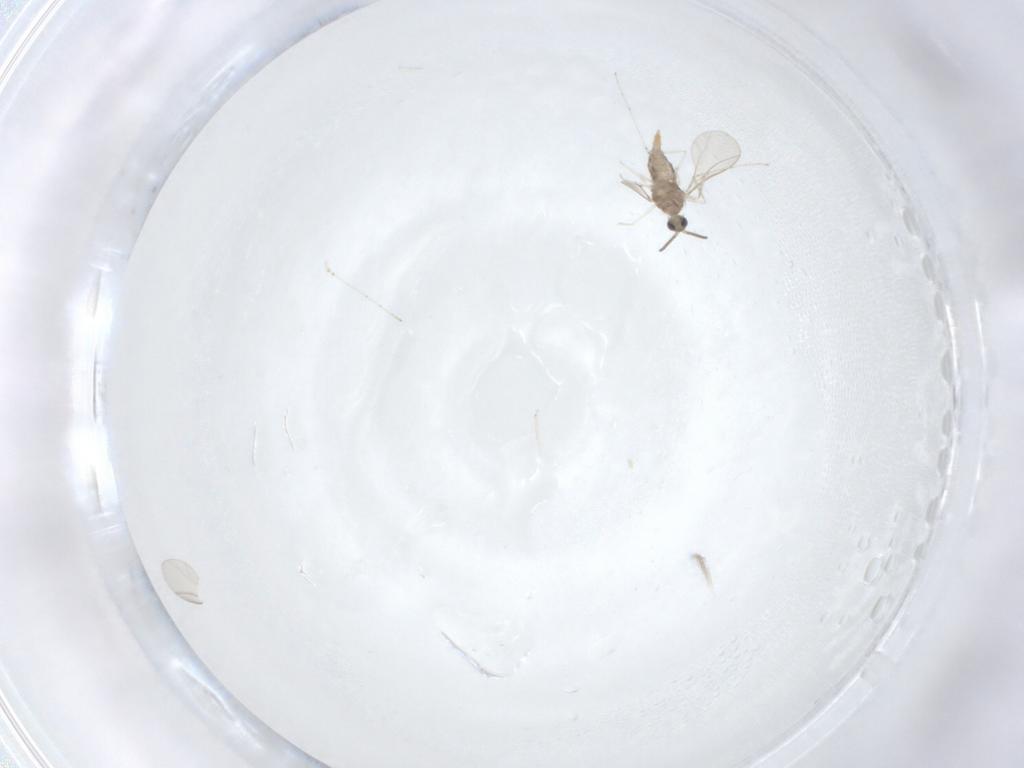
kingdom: Animalia
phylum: Arthropoda
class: Insecta
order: Diptera
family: Cecidomyiidae
